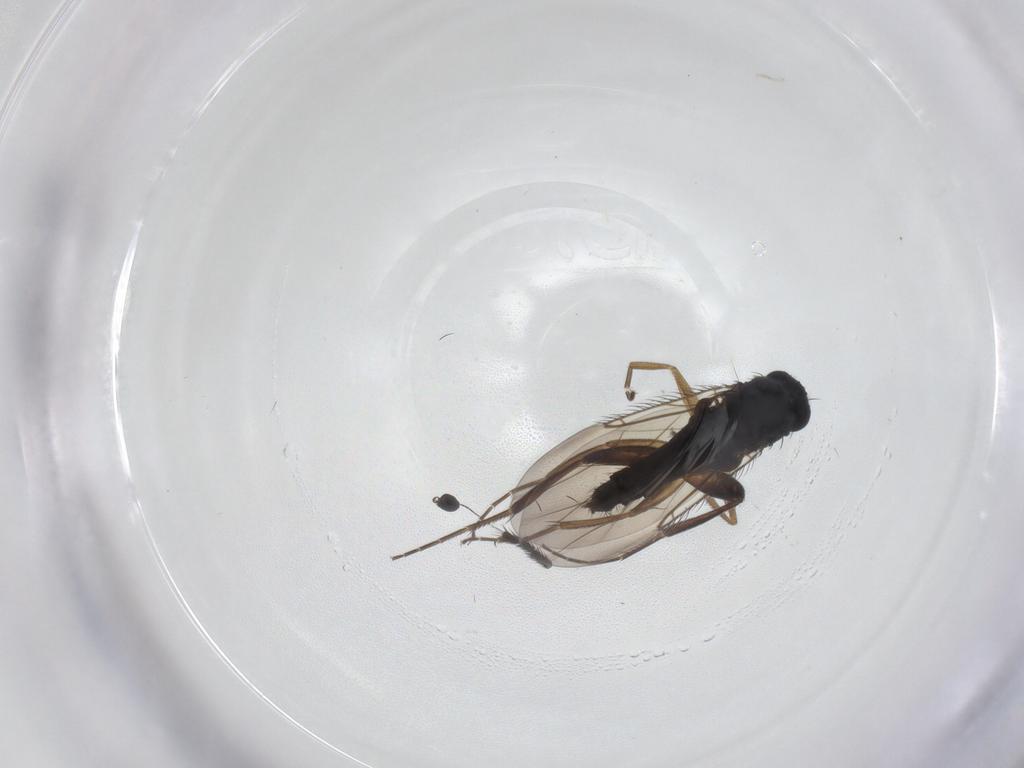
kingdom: Animalia
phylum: Arthropoda
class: Insecta
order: Diptera
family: Phoridae
